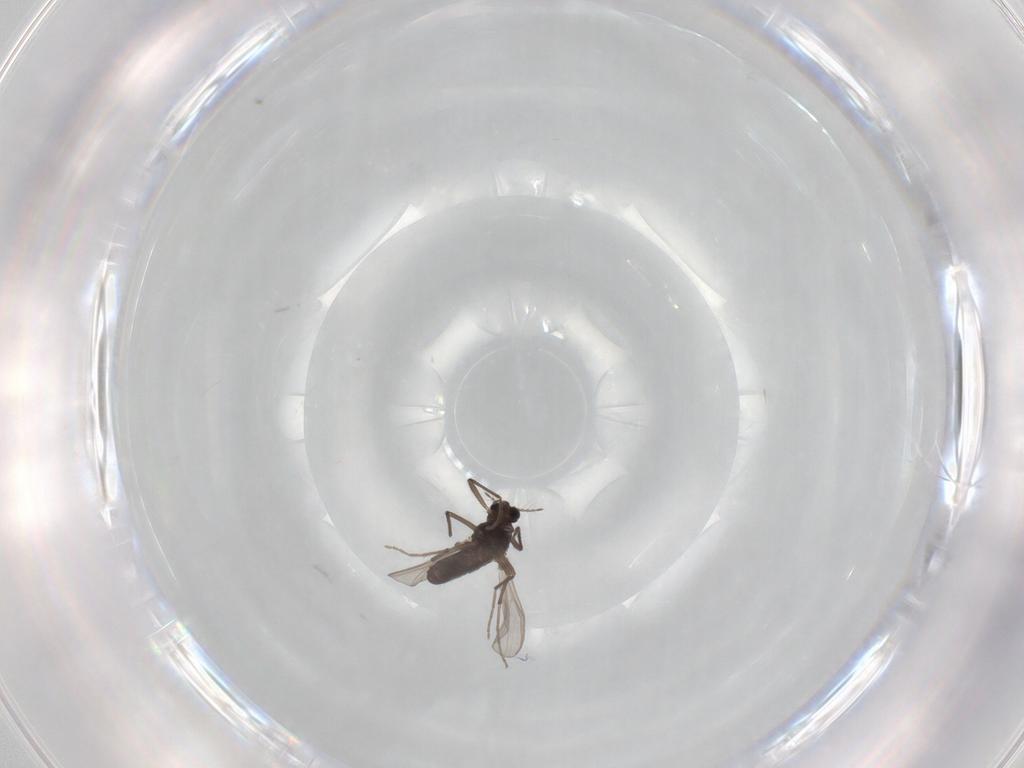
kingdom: Animalia
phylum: Arthropoda
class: Insecta
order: Diptera
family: Chironomidae
